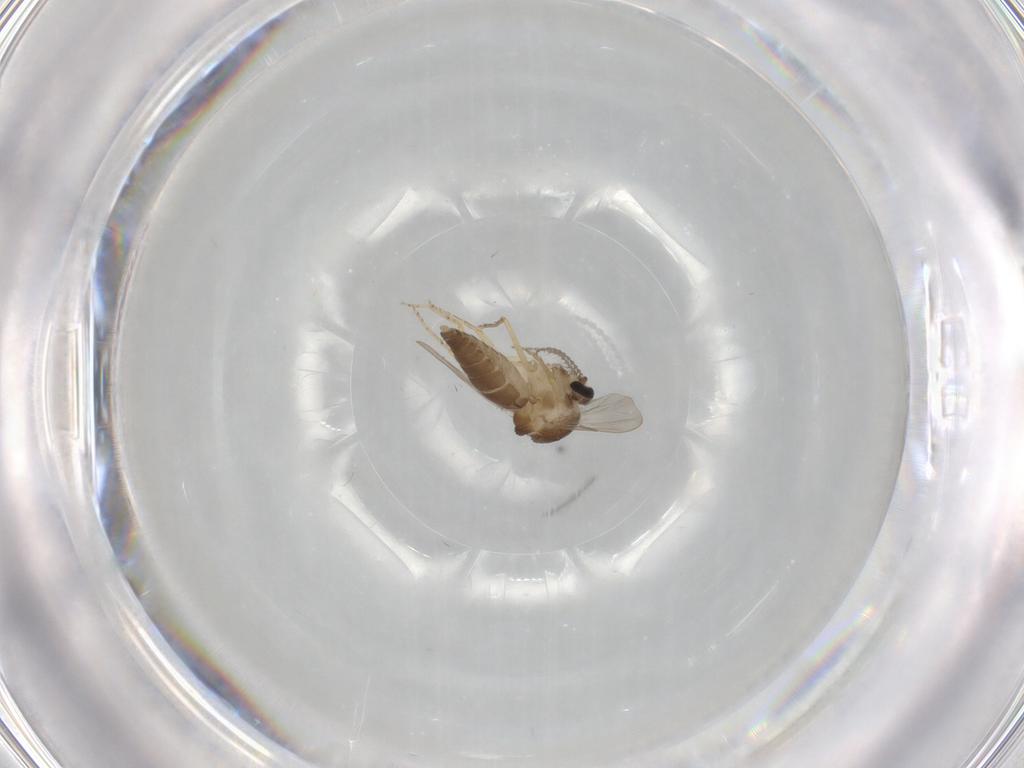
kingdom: Animalia
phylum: Arthropoda
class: Insecta
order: Diptera
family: Ceratopogonidae
